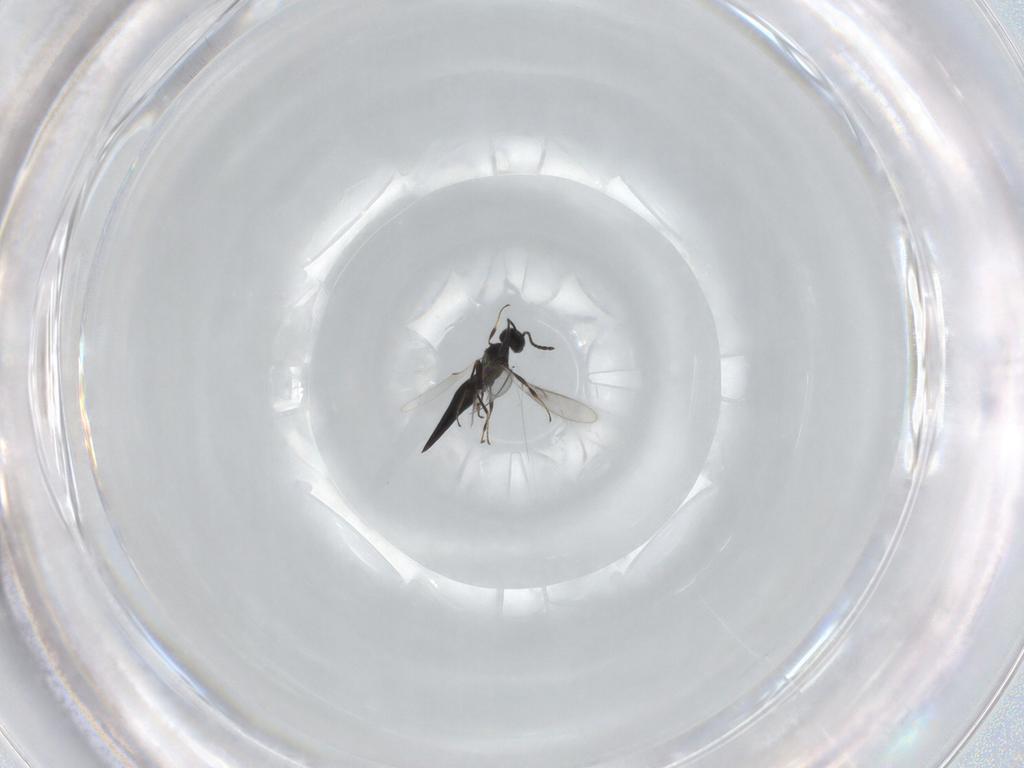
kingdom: Animalia
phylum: Arthropoda
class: Insecta
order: Hymenoptera
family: Scelionidae
